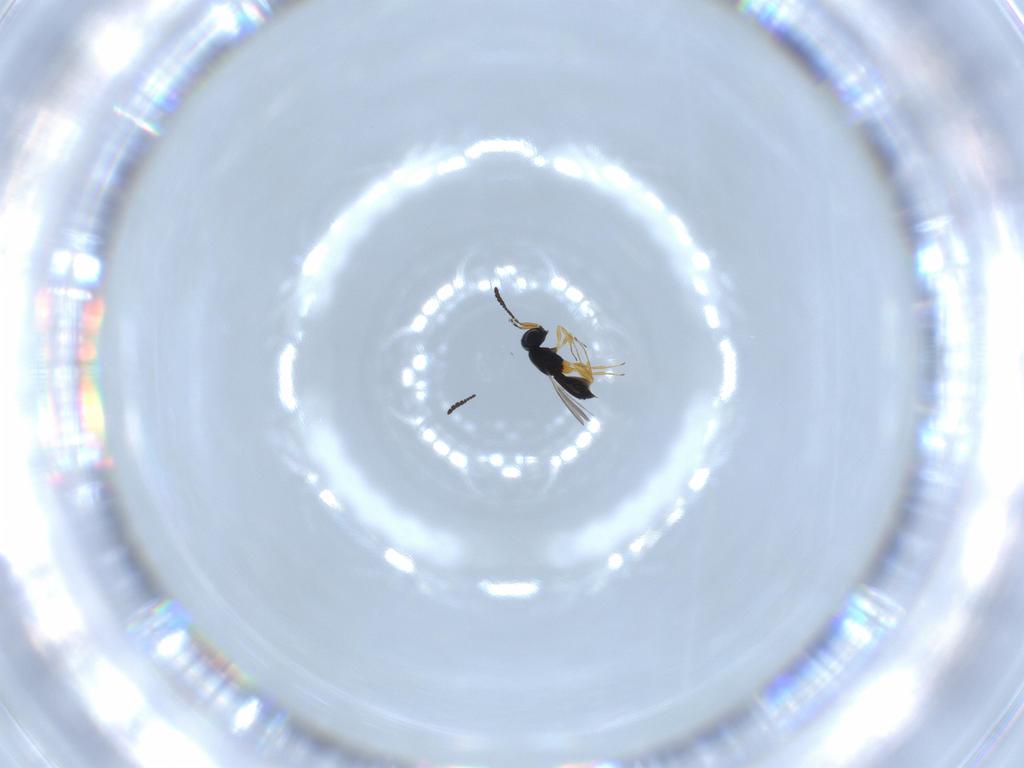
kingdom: Animalia
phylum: Arthropoda
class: Insecta
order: Hymenoptera
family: Scelionidae
